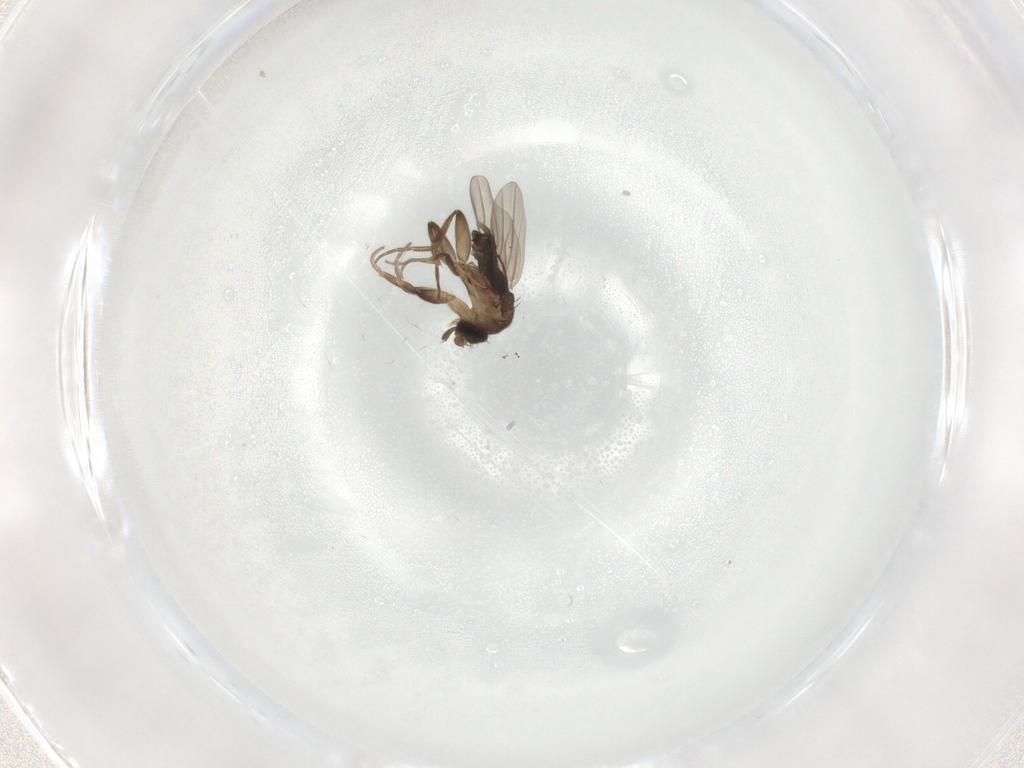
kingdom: Animalia
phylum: Arthropoda
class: Insecta
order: Diptera
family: Phoridae
